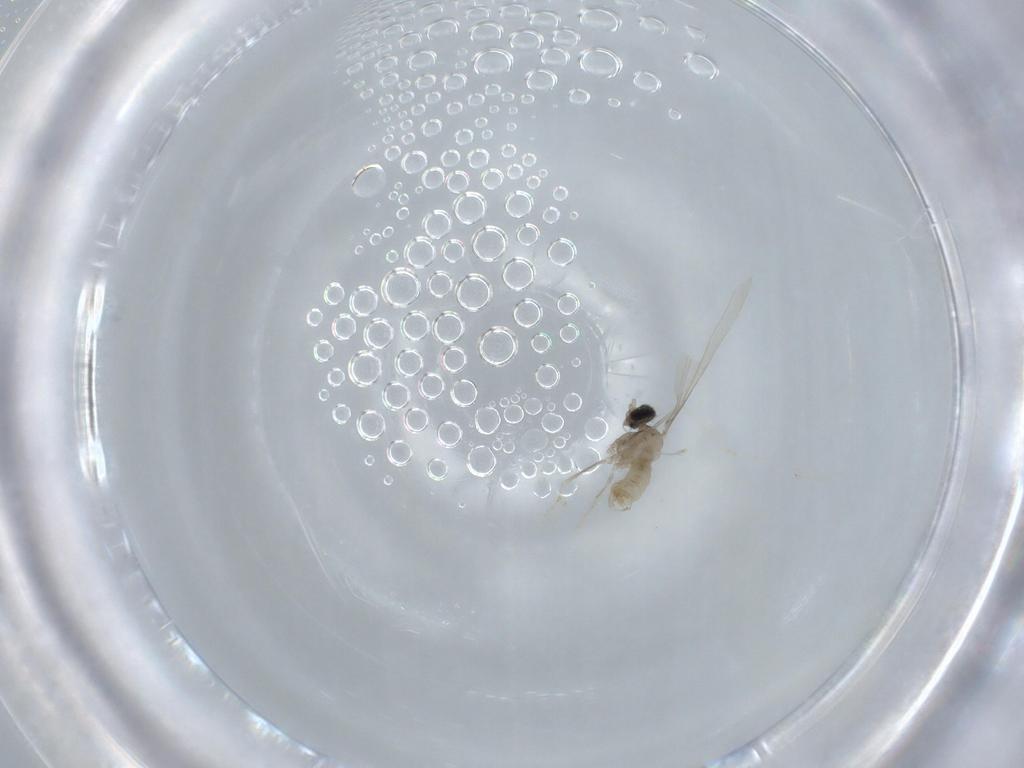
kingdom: Animalia
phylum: Arthropoda
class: Insecta
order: Diptera
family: Cecidomyiidae
